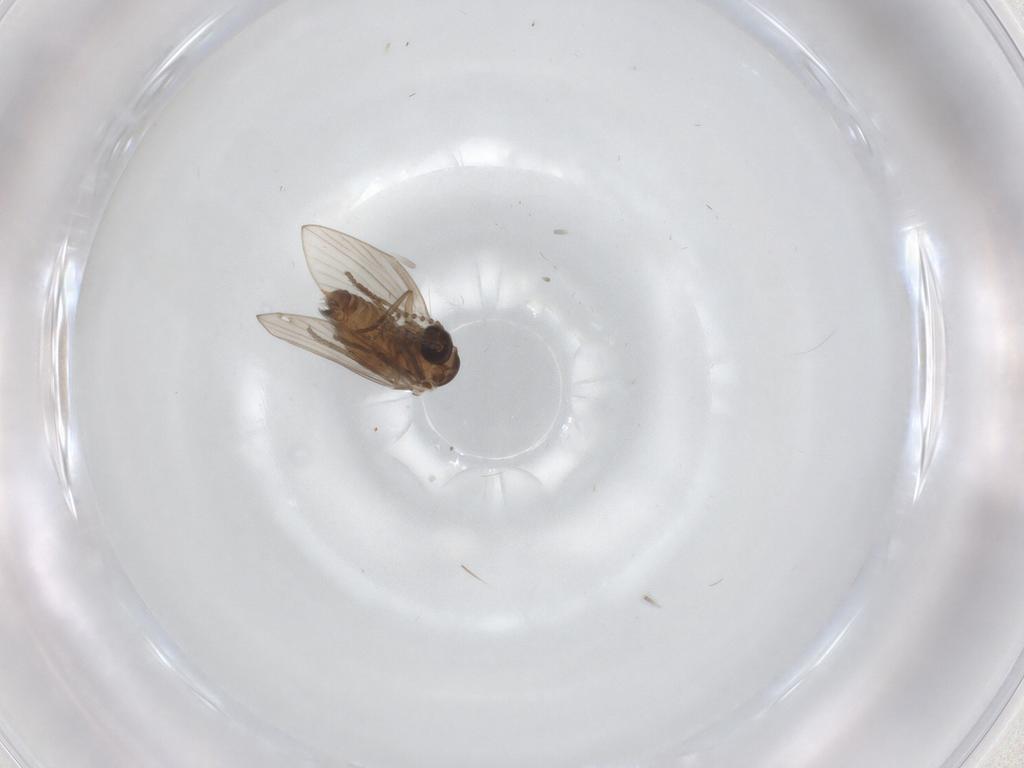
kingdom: Animalia
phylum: Arthropoda
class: Insecta
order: Diptera
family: Psychodidae
